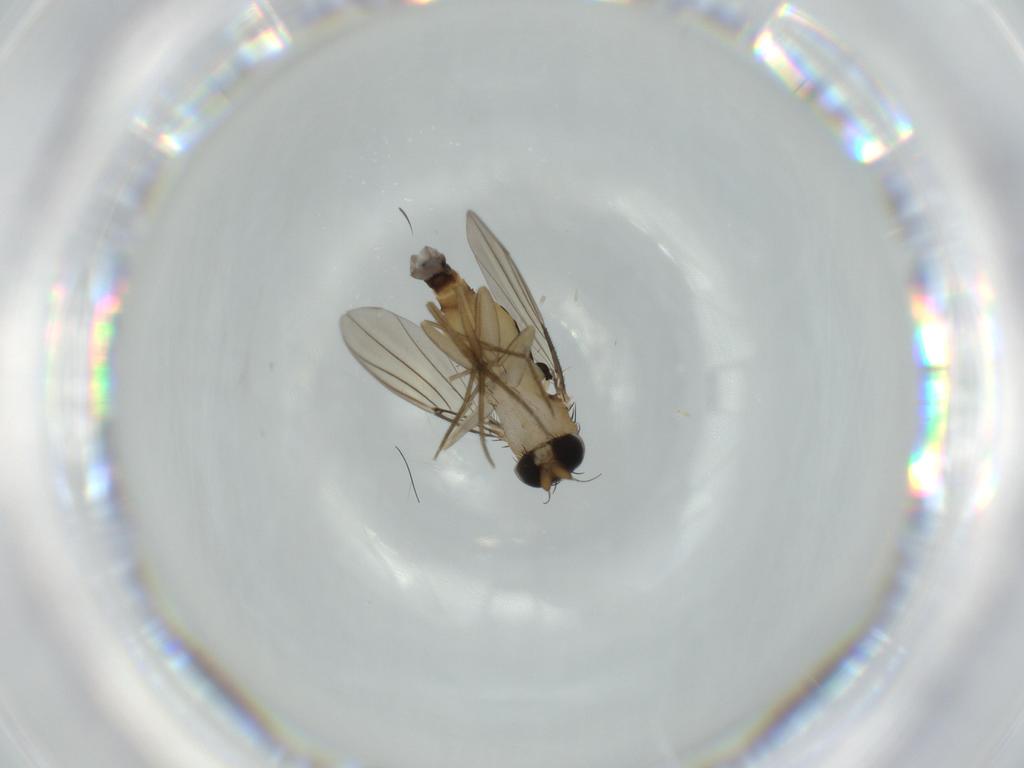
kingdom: Animalia
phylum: Arthropoda
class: Insecta
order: Diptera
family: Phoridae
